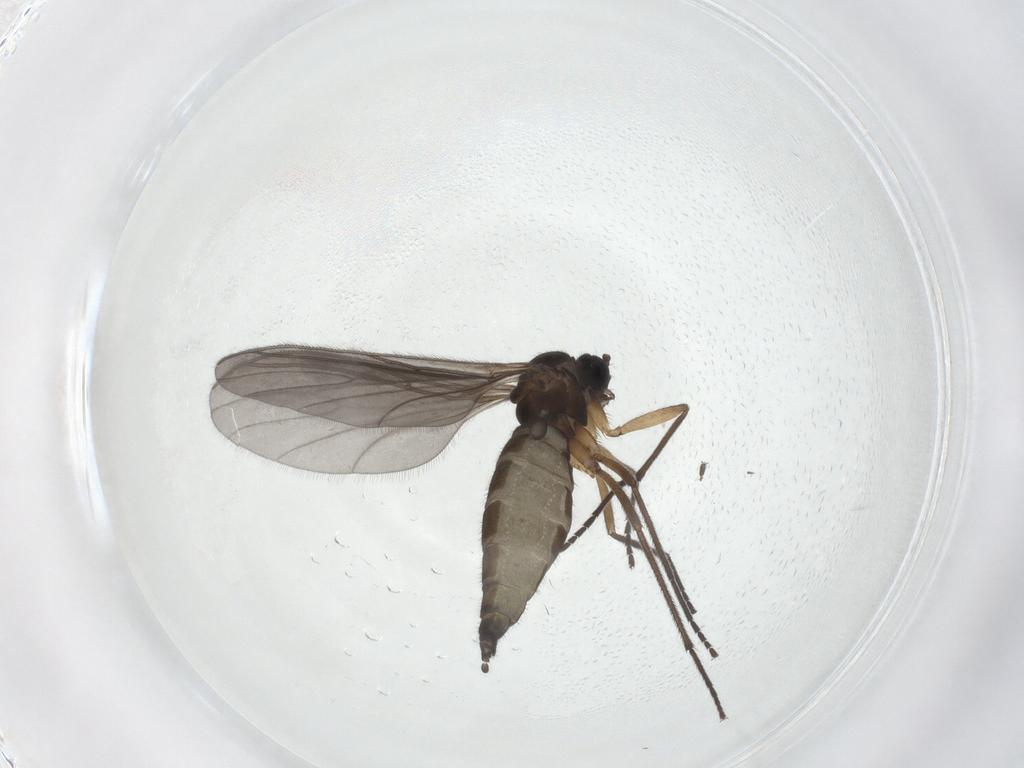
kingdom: Animalia
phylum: Arthropoda
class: Insecta
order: Diptera
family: Sciaridae
